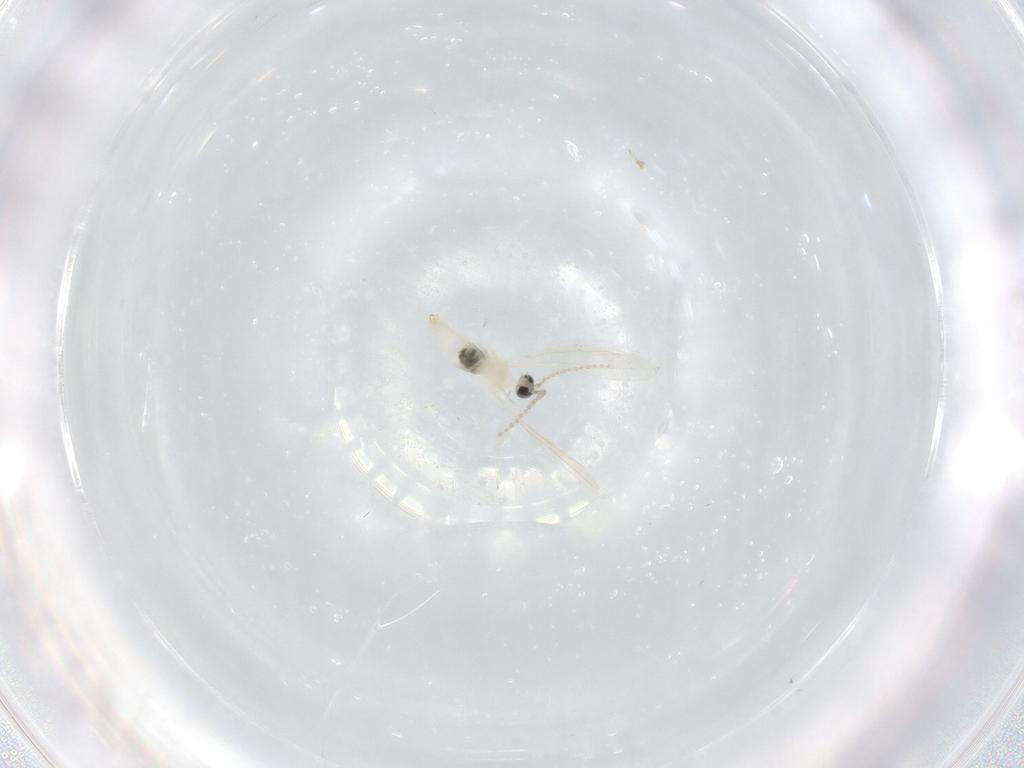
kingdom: Animalia
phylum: Arthropoda
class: Insecta
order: Diptera
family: Cecidomyiidae
